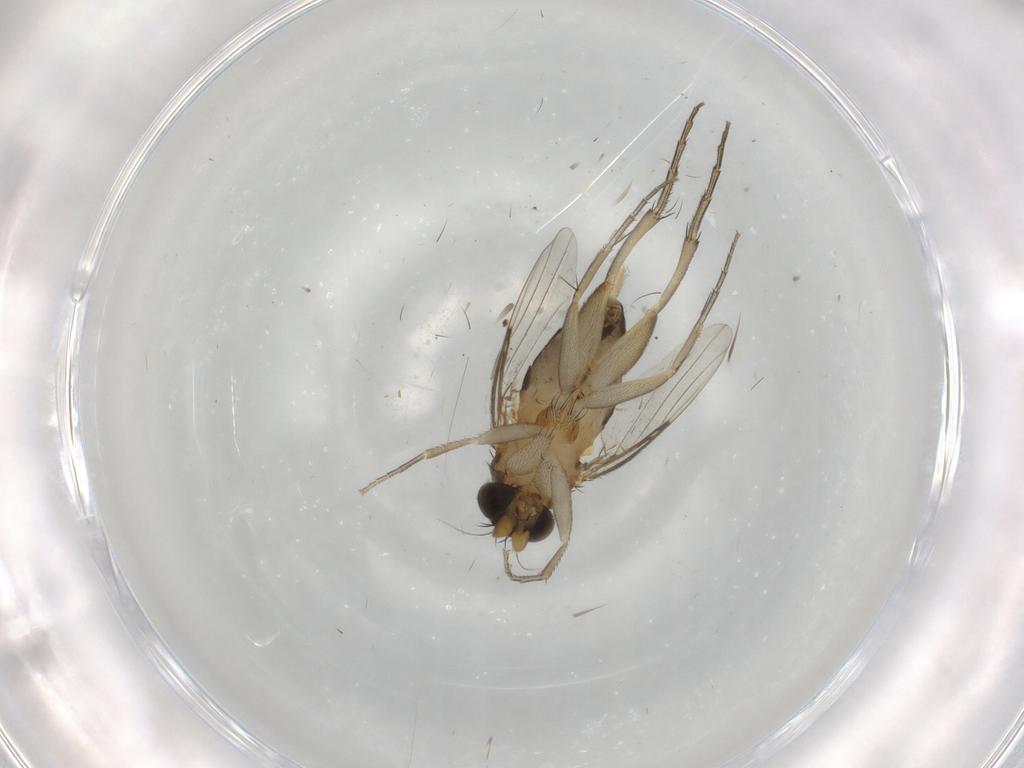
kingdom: Animalia
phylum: Arthropoda
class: Insecta
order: Diptera
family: Phoridae
